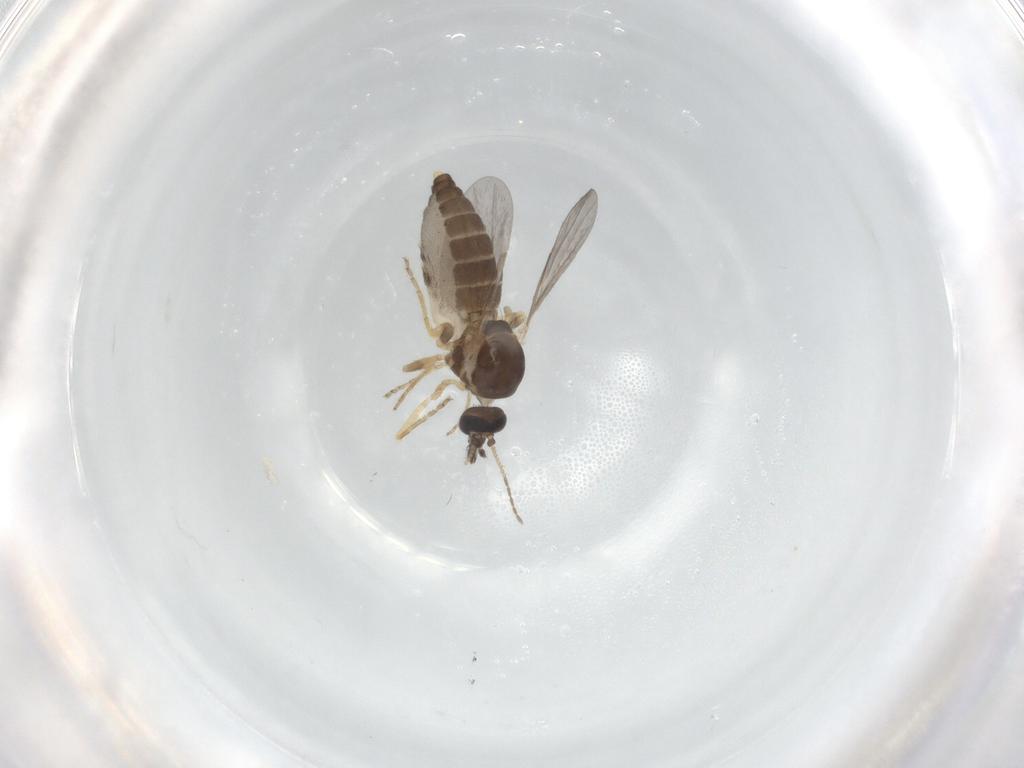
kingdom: Animalia
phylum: Arthropoda
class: Insecta
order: Diptera
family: Ceratopogonidae
